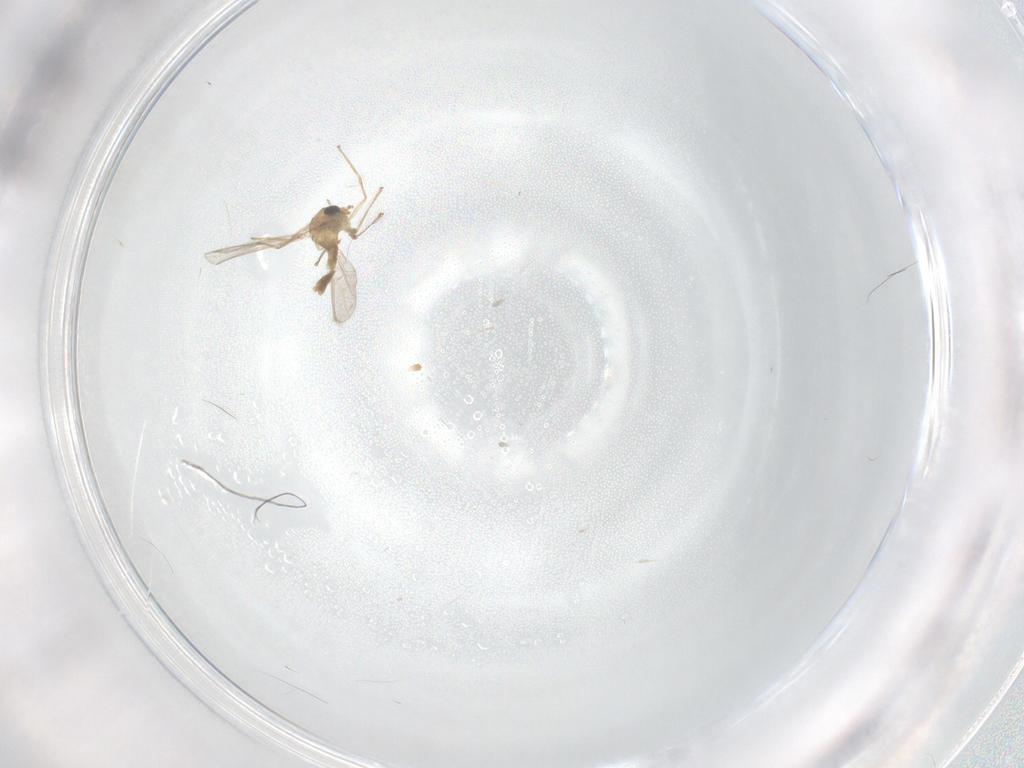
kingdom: Animalia
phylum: Arthropoda
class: Insecta
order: Diptera
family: Chironomidae
